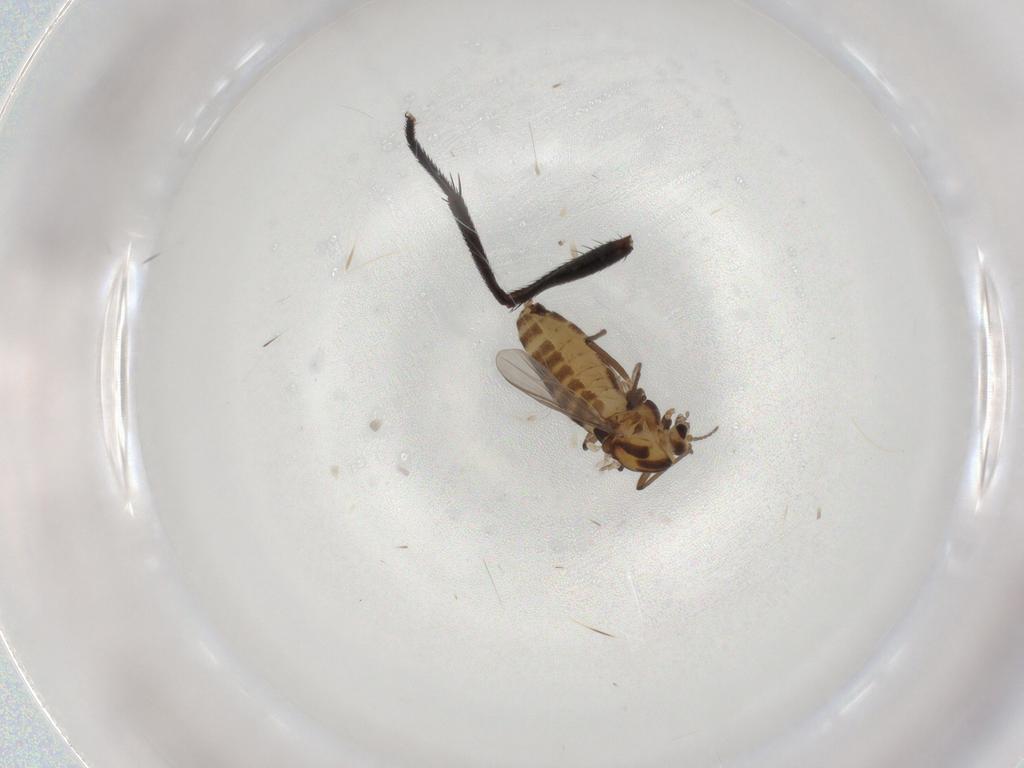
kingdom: Animalia
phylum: Arthropoda
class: Insecta
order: Diptera
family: Chironomidae
